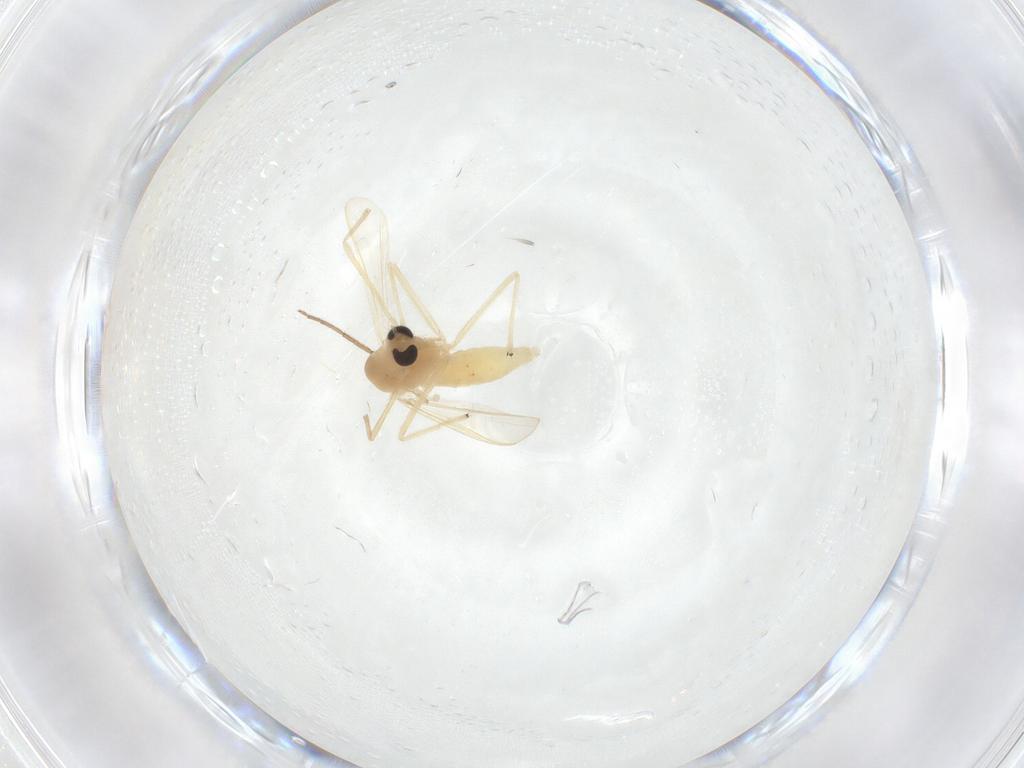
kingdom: Animalia
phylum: Arthropoda
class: Insecta
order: Diptera
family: Chironomidae
